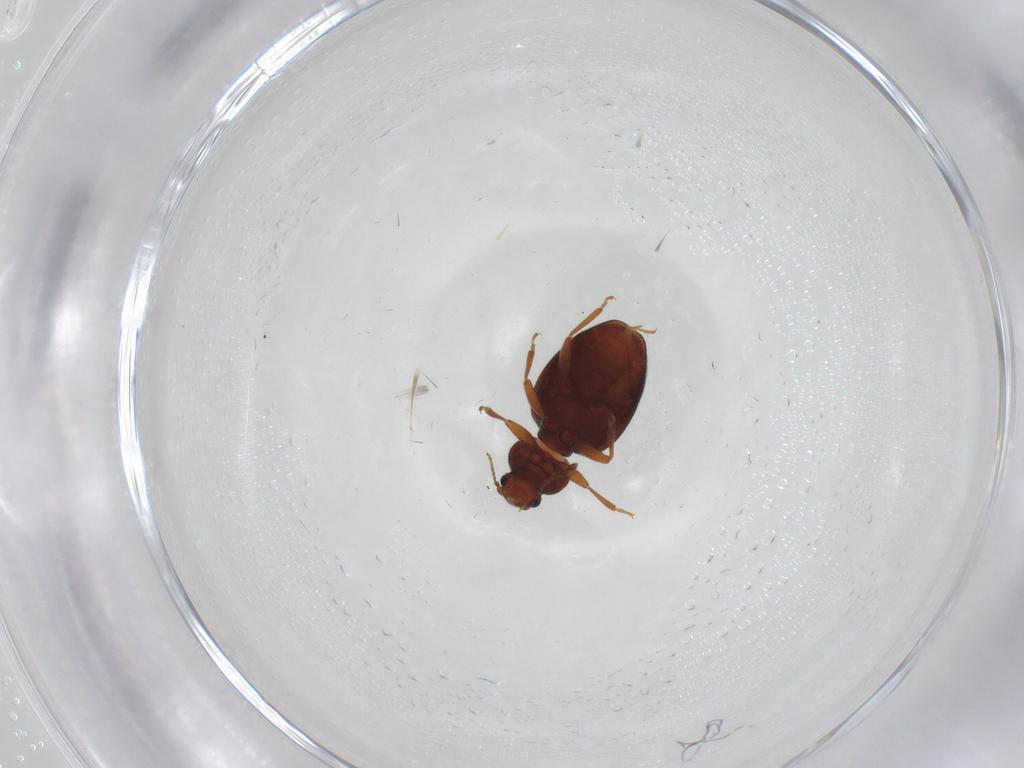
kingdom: Animalia
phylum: Arthropoda
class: Insecta
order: Coleoptera
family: Latridiidae
